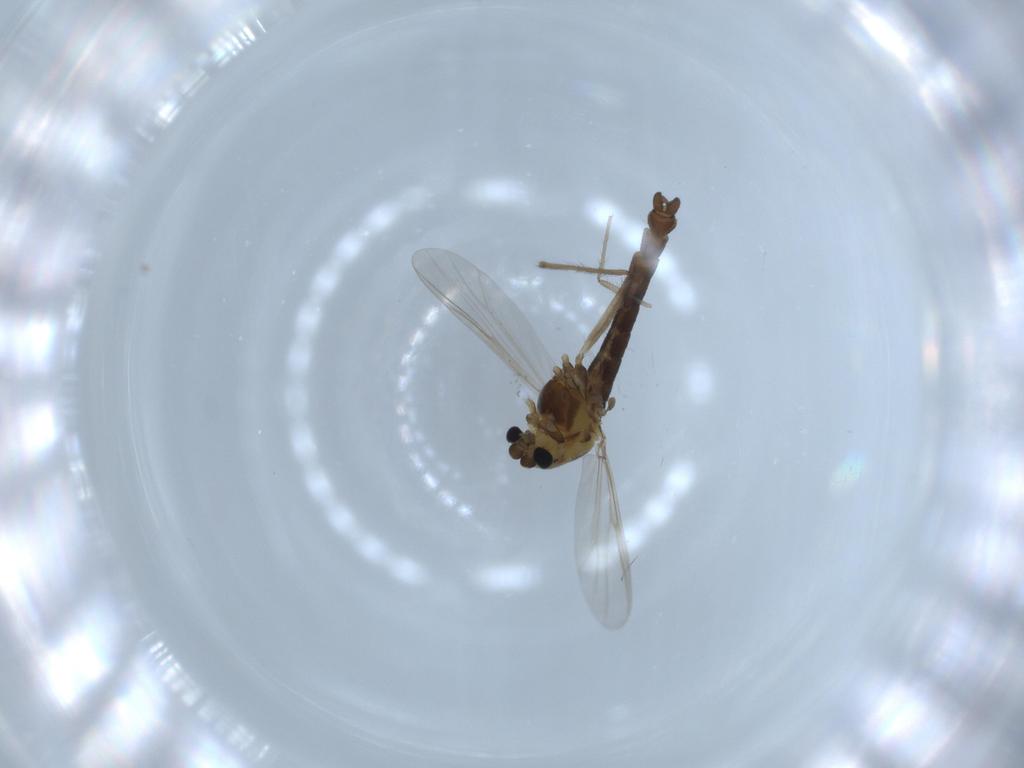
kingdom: Animalia
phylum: Arthropoda
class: Insecta
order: Diptera
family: Chironomidae
